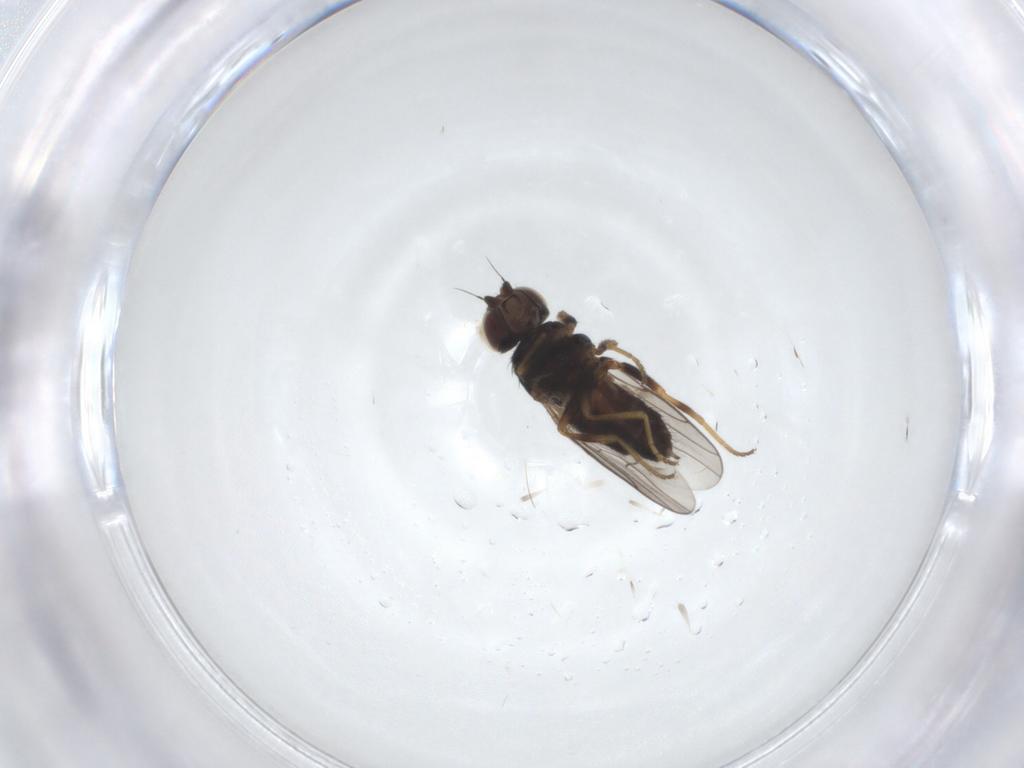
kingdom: Animalia
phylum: Arthropoda
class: Insecta
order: Diptera
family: Chloropidae
